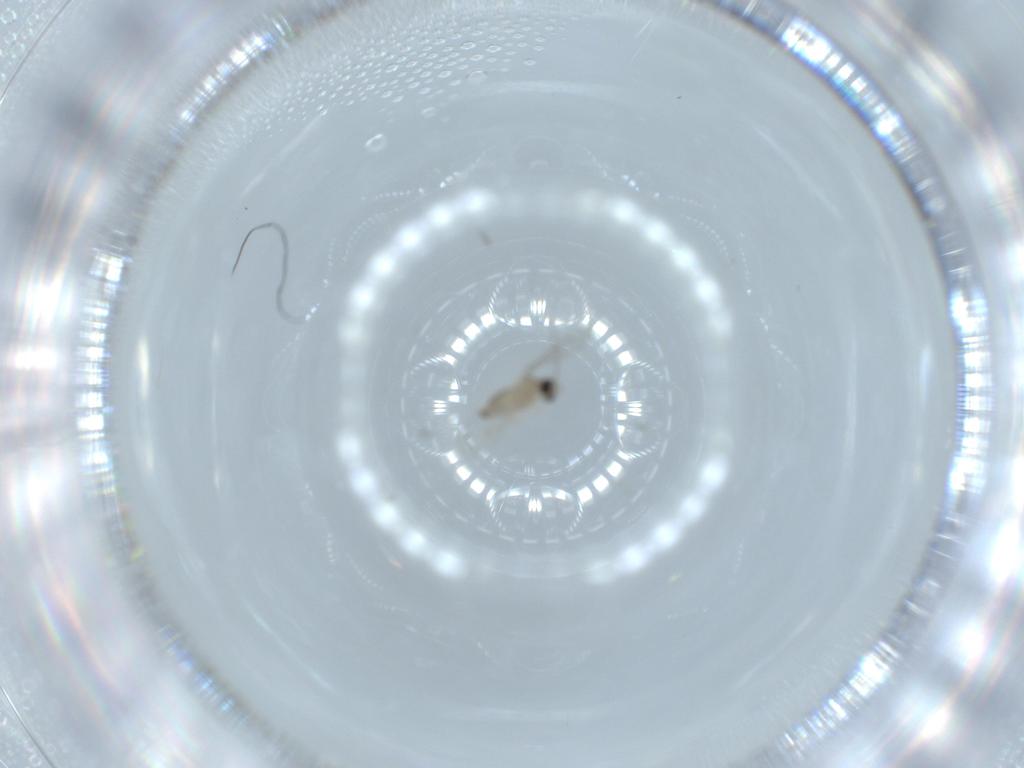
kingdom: Animalia
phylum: Arthropoda
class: Insecta
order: Diptera
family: Cecidomyiidae
